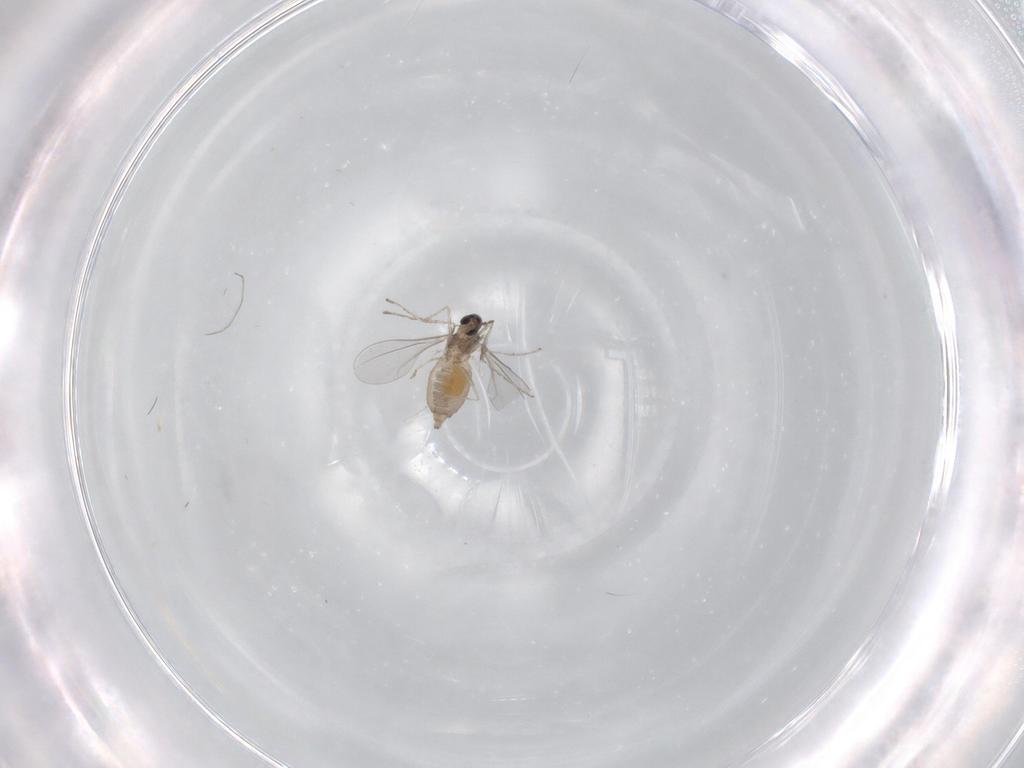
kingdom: Animalia
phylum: Arthropoda
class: Insecta
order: Diptera
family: Cecidomyiidae
